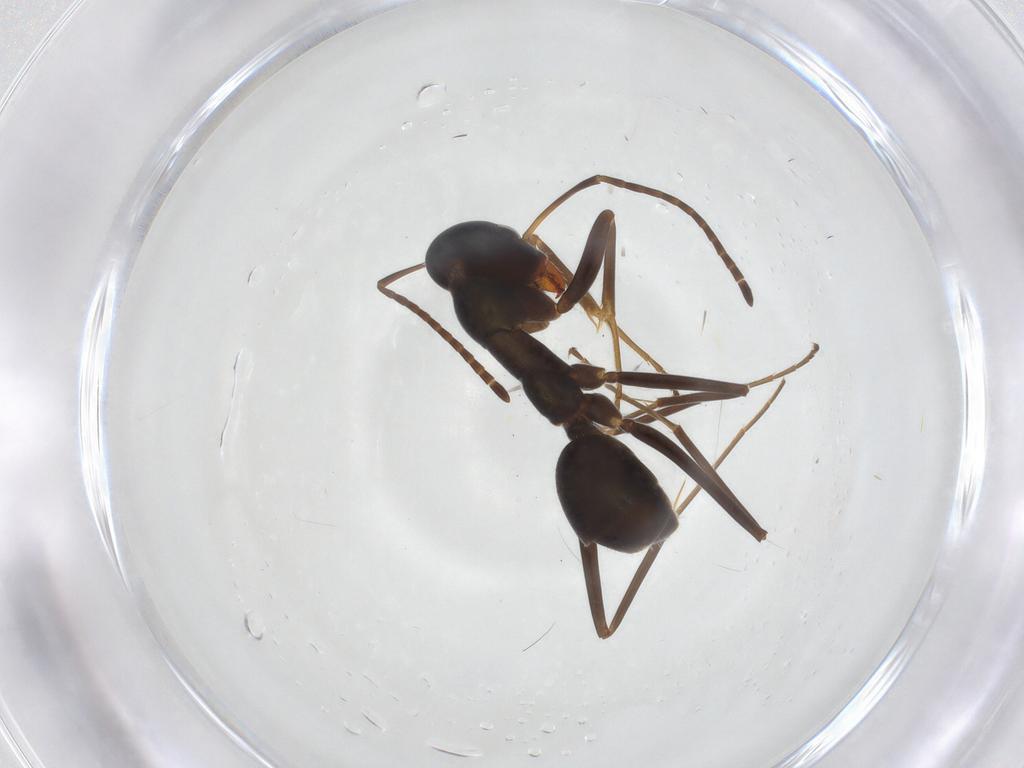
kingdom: Animalia
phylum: Arthropoda
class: Insecta
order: Hymenoptera
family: Formicidae
